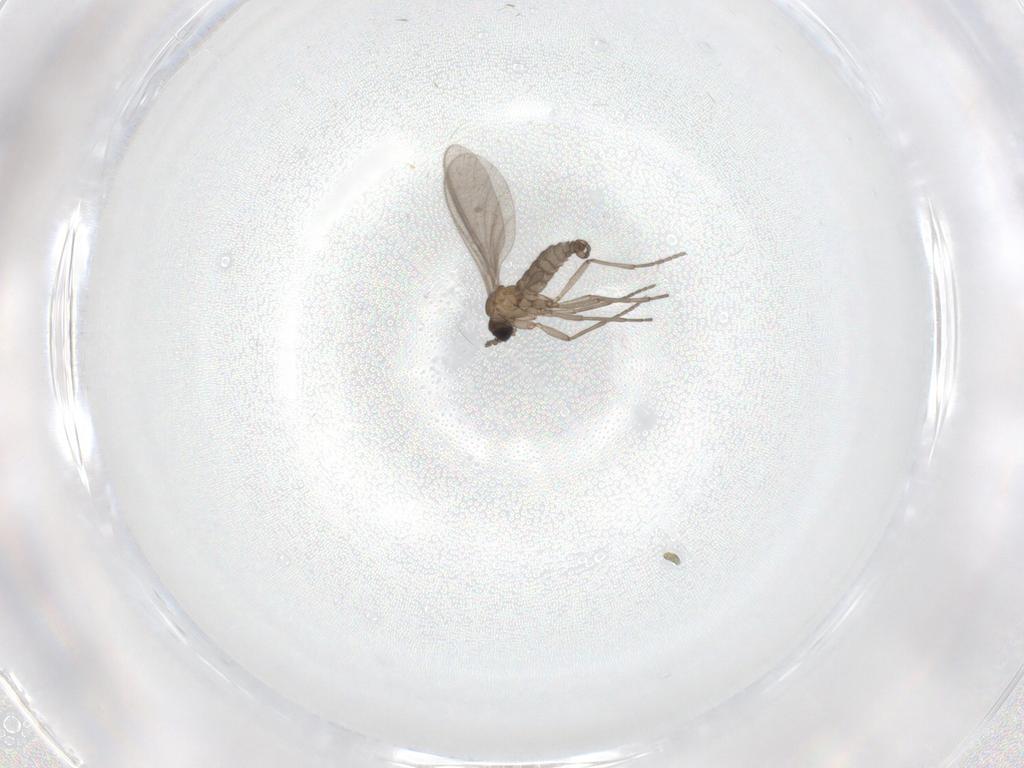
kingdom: Animalia
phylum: Arthropoda
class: Insecta
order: Diptera
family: Sciaridae
